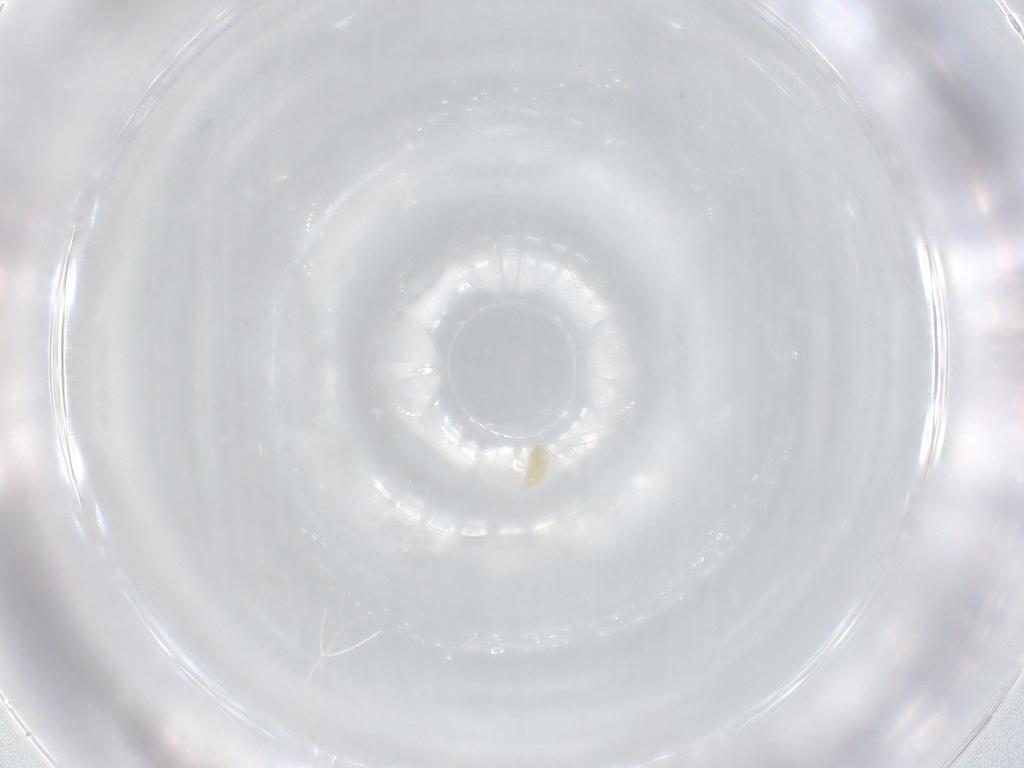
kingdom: Animalia
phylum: Arthropoda
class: Arachnida
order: Trombidiformes
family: Eupodidae
